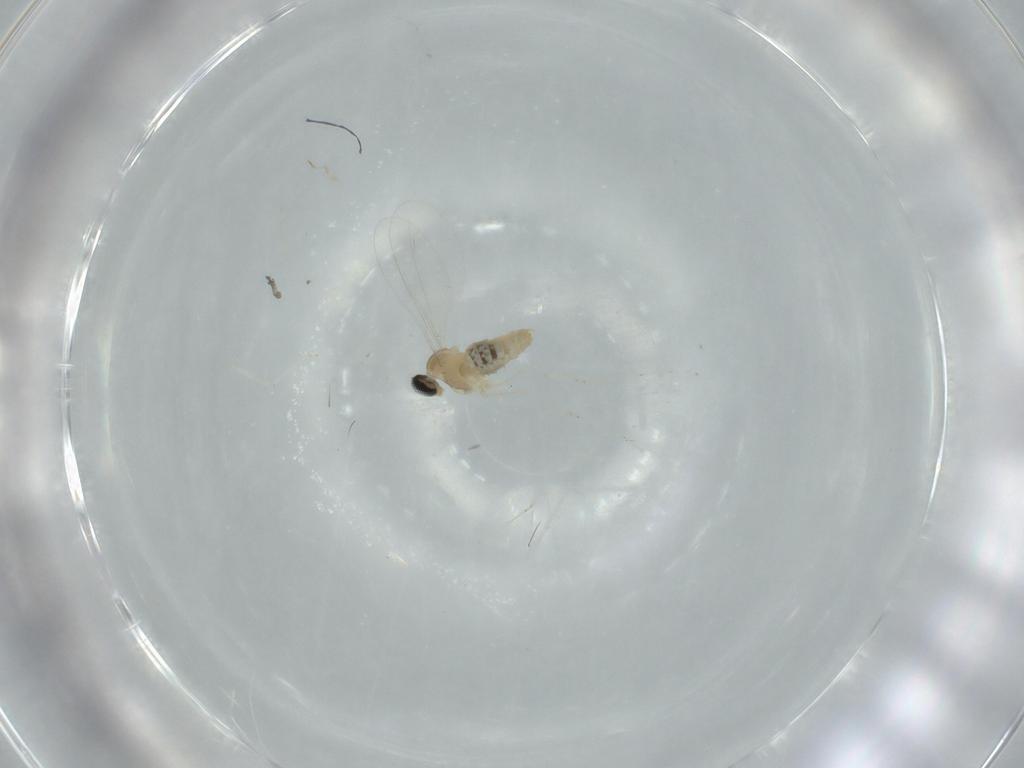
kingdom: Animalia
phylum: Arthropoda
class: Insecta
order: Diptera
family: Cecidomyiidae
